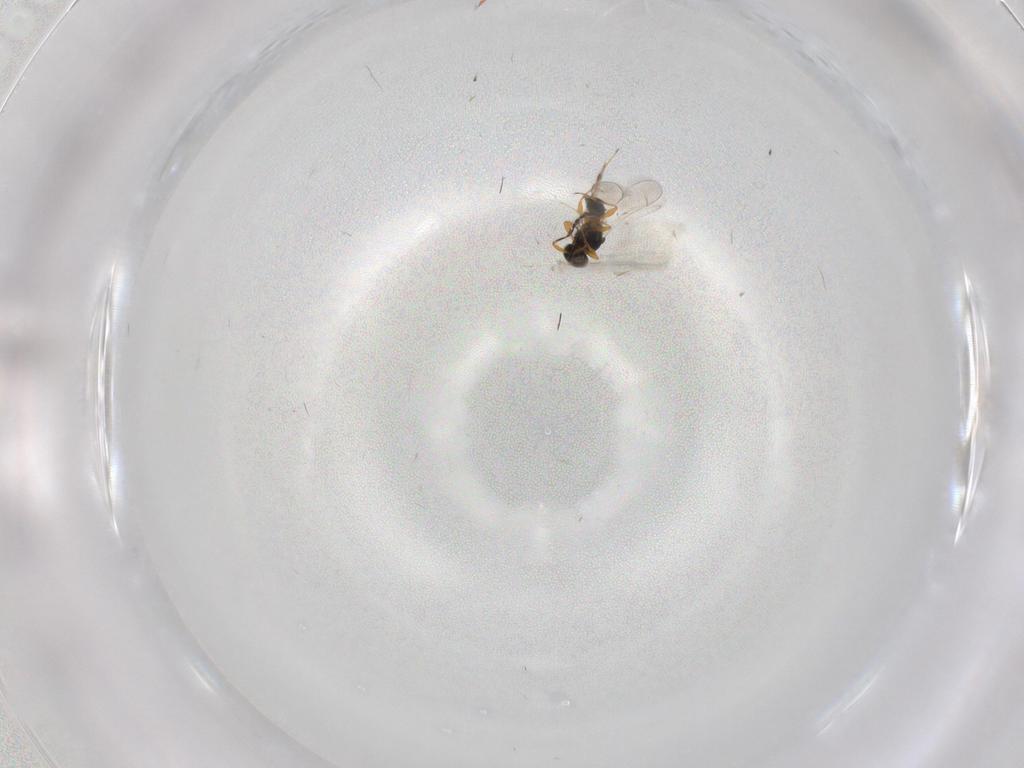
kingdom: Animalia
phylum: Arthropoda
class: Insecta
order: Hymenoptera
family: Platygastridae
